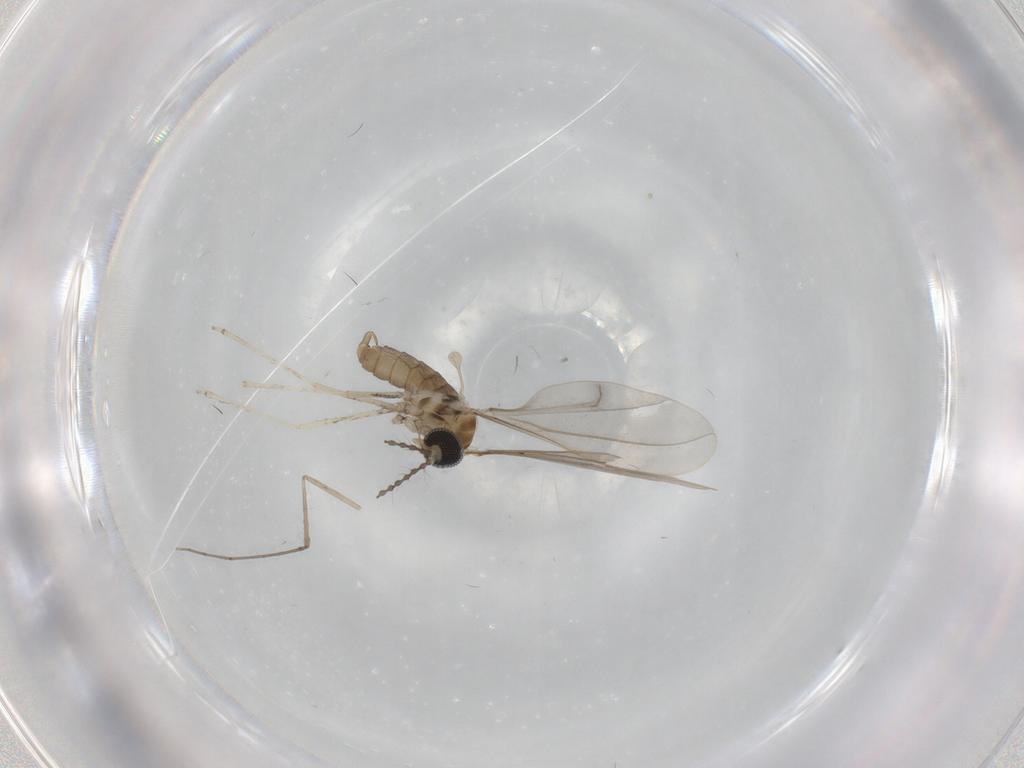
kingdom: Animalia
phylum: Arthropoda
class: Insecta
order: Diptera
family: Cecidomyiidae
